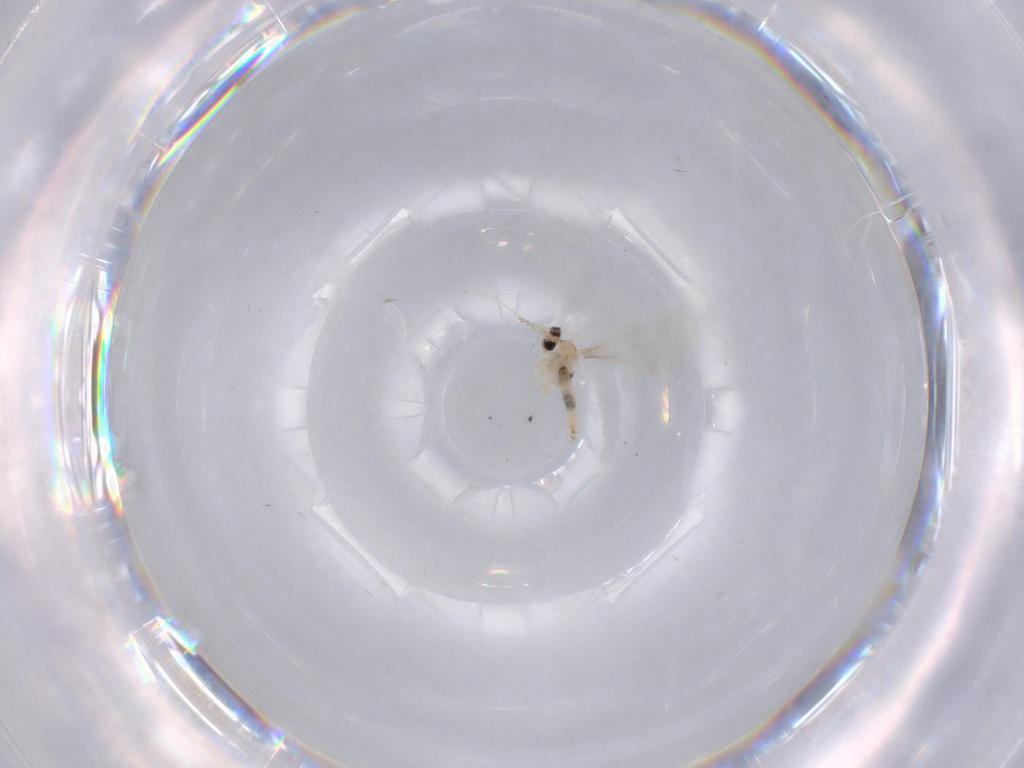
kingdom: Animalia
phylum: Arthropoda
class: Insecta
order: Diptera
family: Cecidomyiidae
